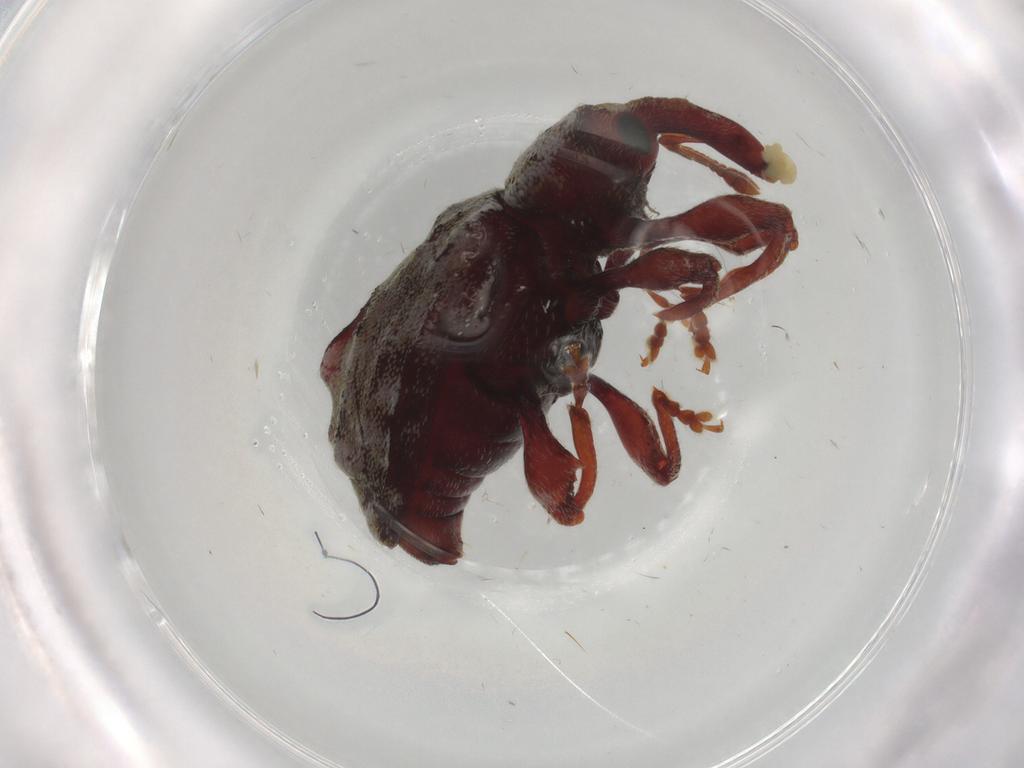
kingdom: Animalia
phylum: Arthropoda
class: Insecta
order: Coleoptera
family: Curculionidae
